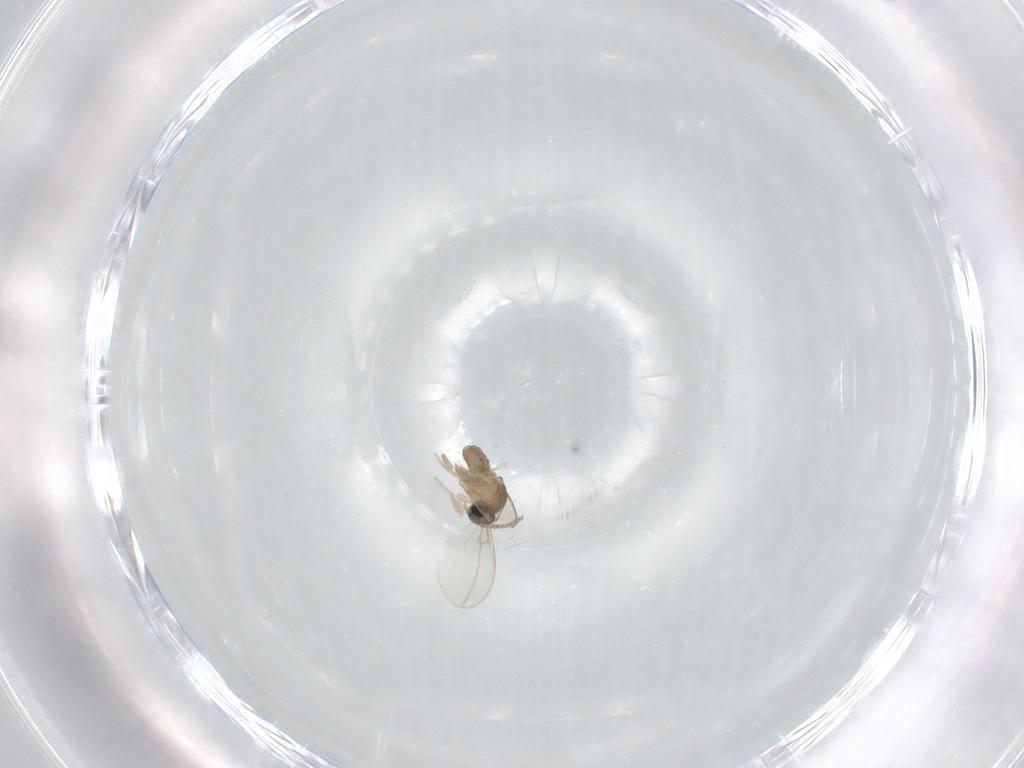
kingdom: Animalia
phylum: Arthropoda
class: Insecta
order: Diptera
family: Cecidomyiidae
